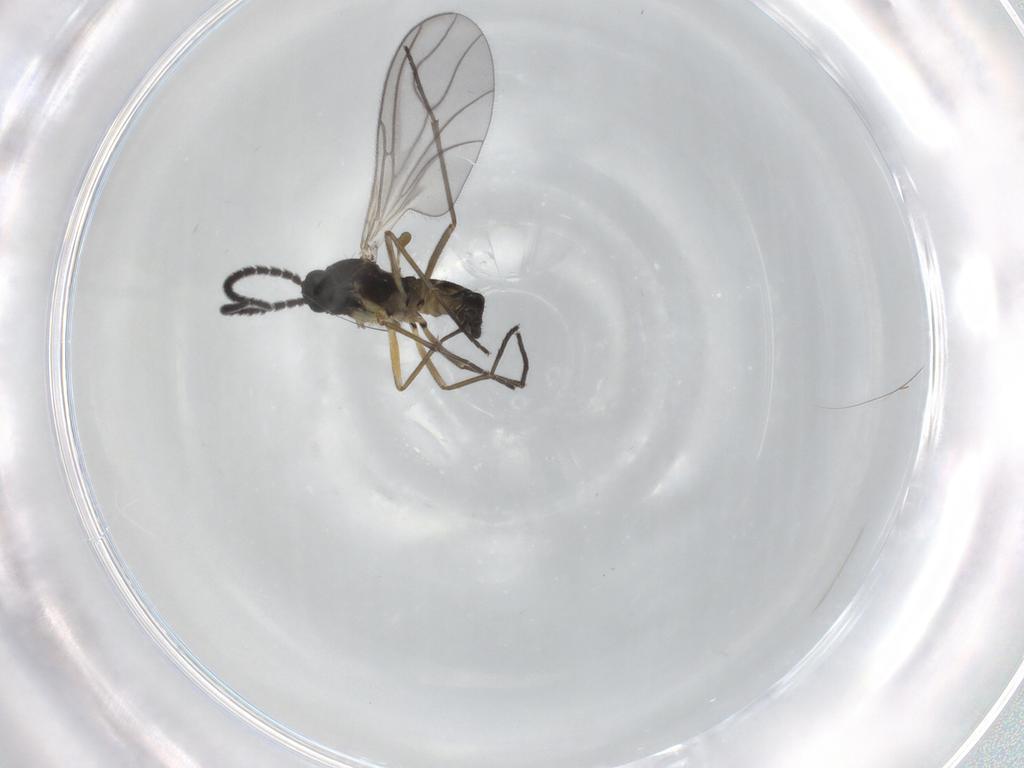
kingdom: Animalia
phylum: Arthropoda
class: Insecta
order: Diptera
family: Sciaridae
